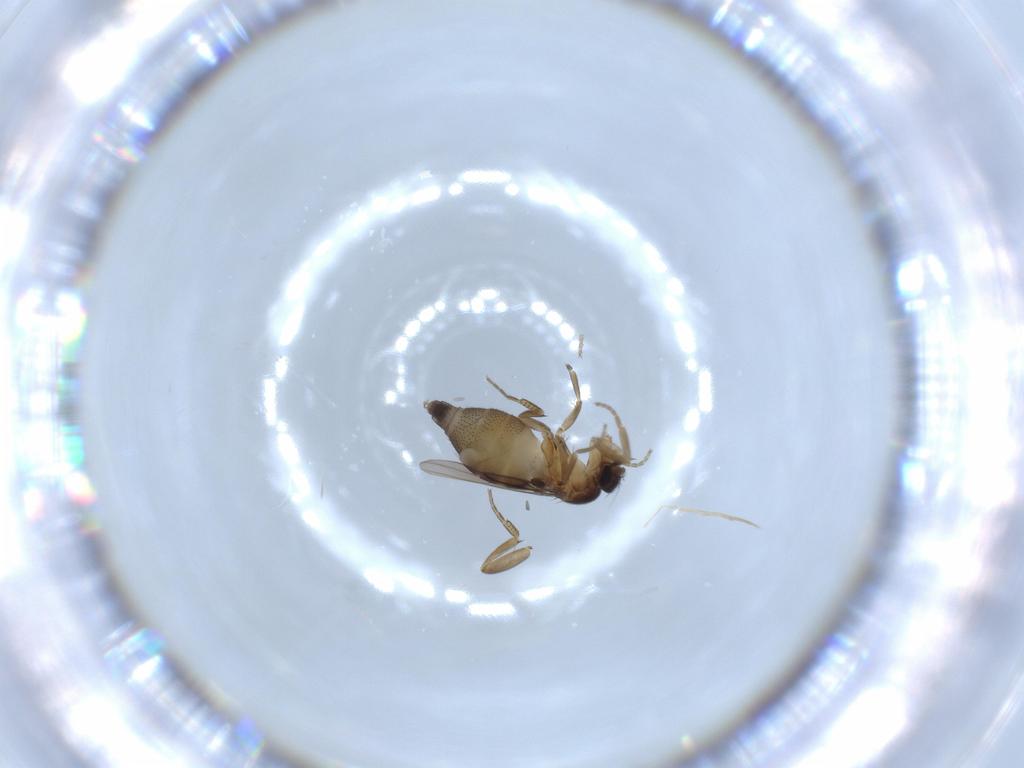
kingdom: Animalia
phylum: Arthropoda
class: Insecta
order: Diptera
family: Phoridae
